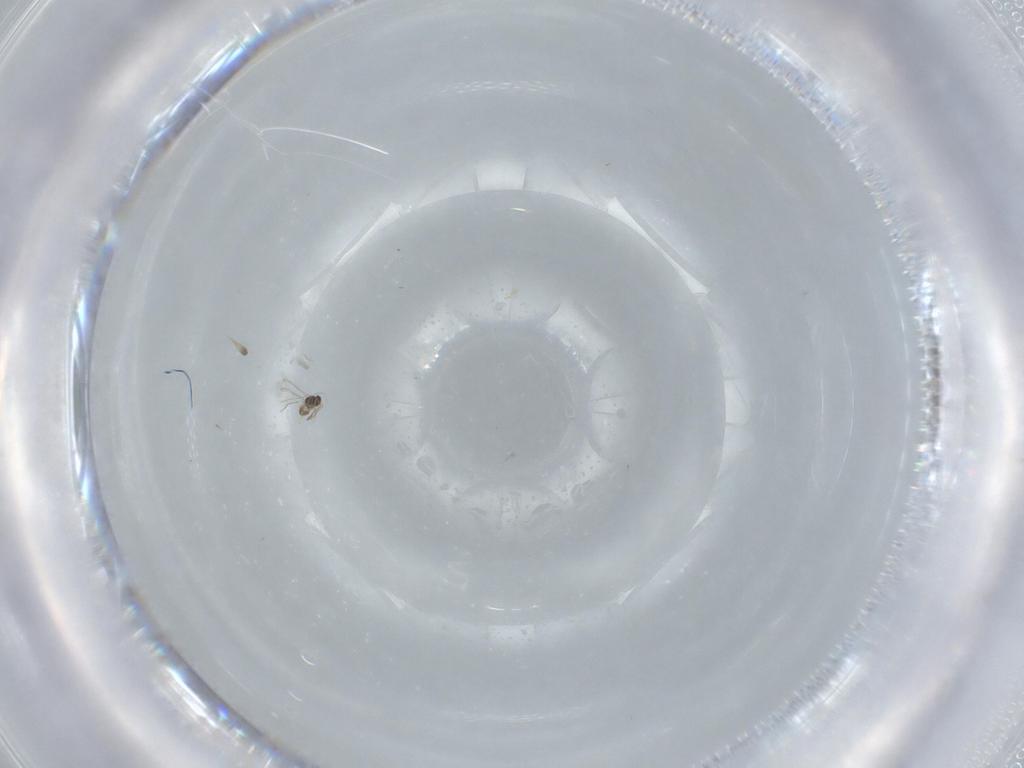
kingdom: Animalia
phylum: Arthropoda
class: Insecta
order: Hymenoptera
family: Mymaridae
